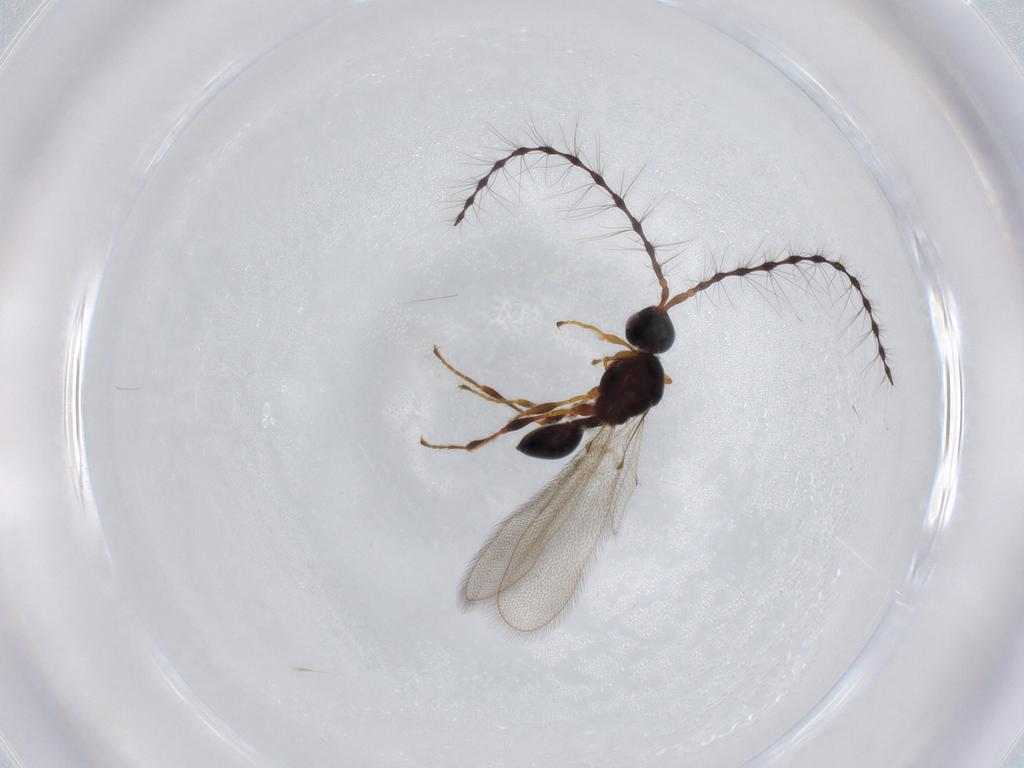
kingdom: Animalia
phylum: Arthropoda
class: Insecta
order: Hymenoptera
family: Diapriidae
